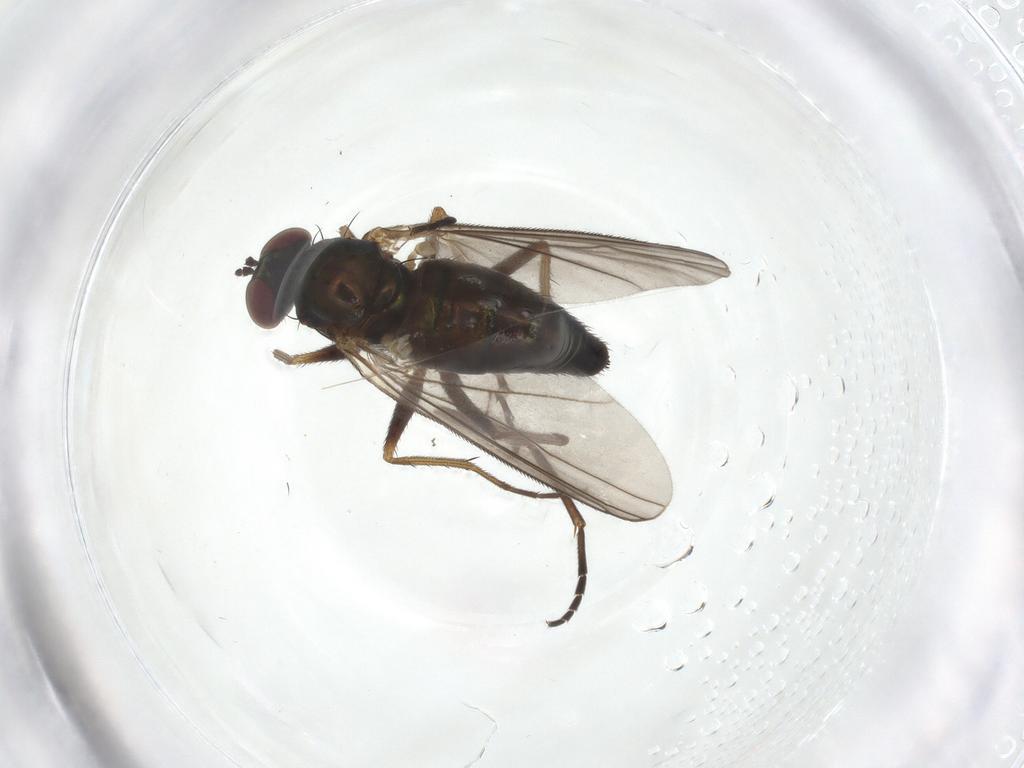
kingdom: Animalia
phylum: Arthropoda
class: Insecta
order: Diptera
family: Dolichopodidae
